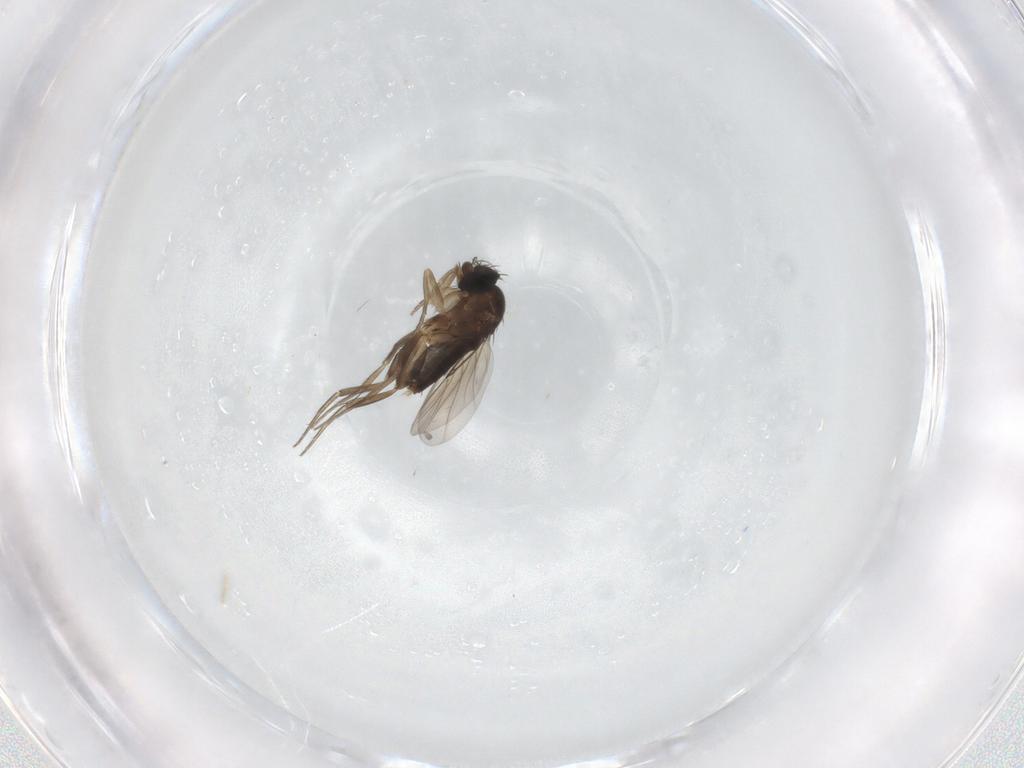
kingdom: Animalia
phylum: Arthropoda
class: Insecta
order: Diptera
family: Phoridae
